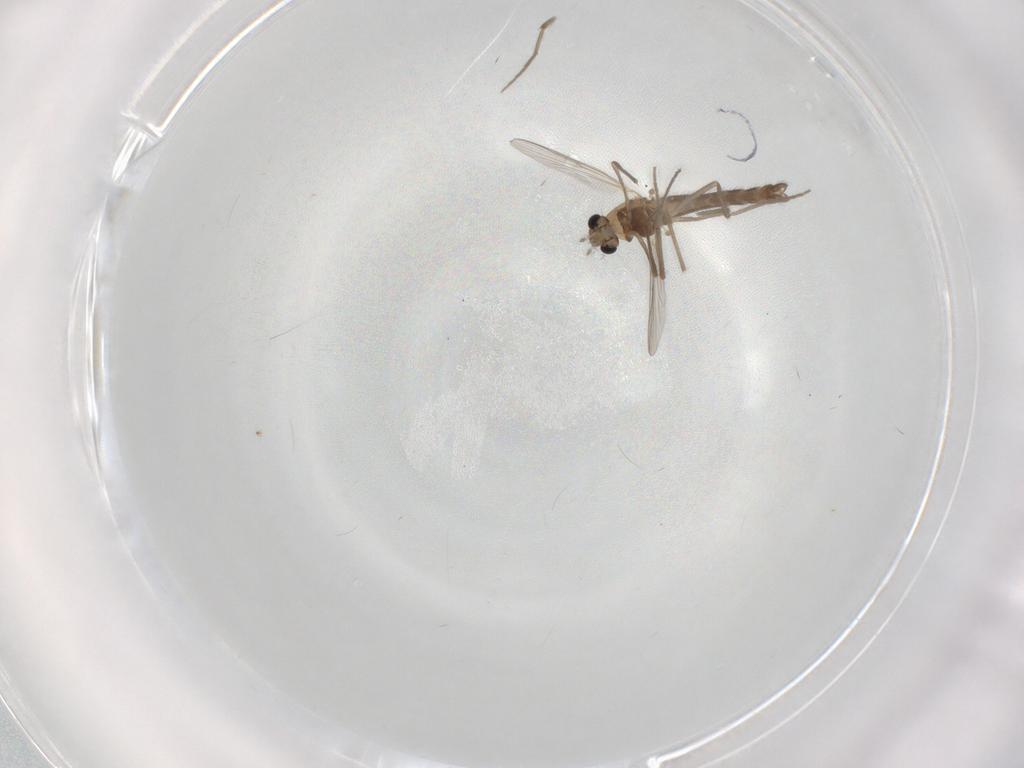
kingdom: Animalia
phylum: Arthropoda
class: Insecta
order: Diptera
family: Chironomidae
